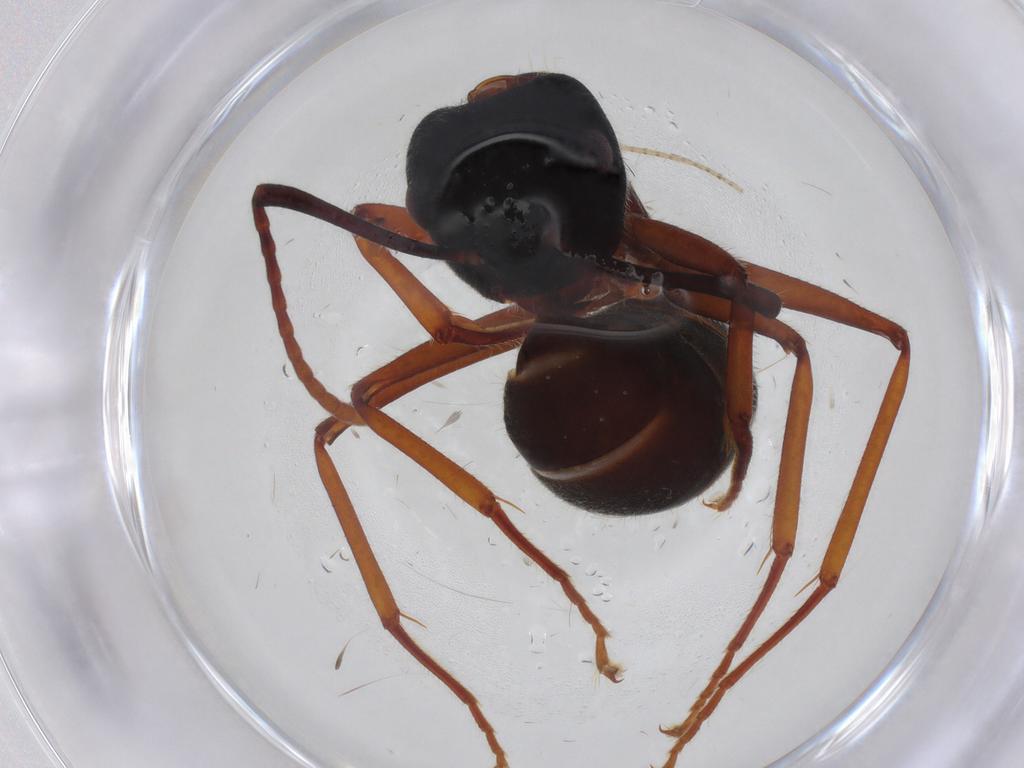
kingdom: Animalia
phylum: Arthropoda
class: Insecta
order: Hymenoptera
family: Formicidae
